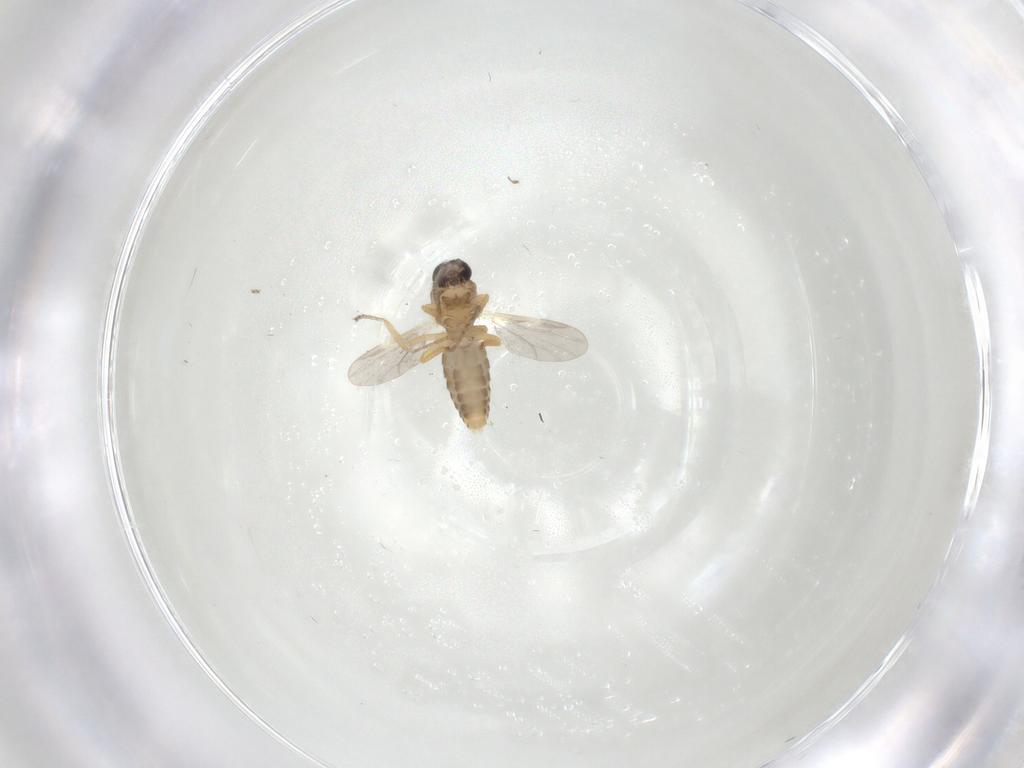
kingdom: Animalia
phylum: Arthropoda
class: Insecta
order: Diptera
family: Ceratopogonidae
